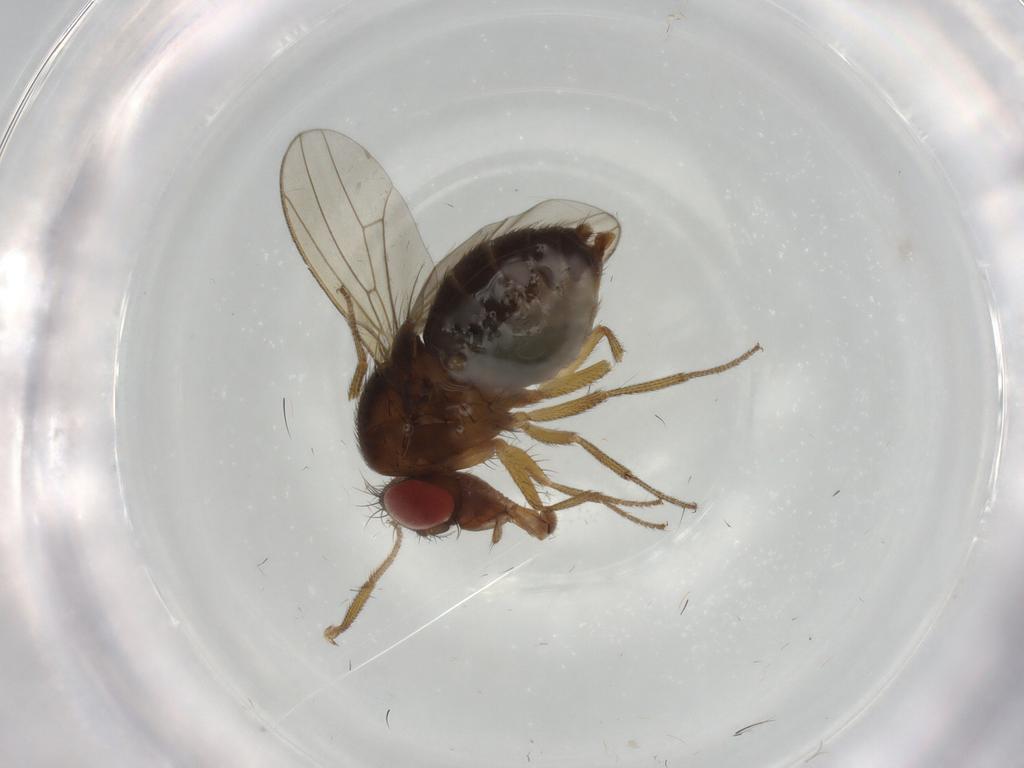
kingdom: Animalia
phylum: Arthropoda
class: Insecta
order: Diptera
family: Drosophilidae
